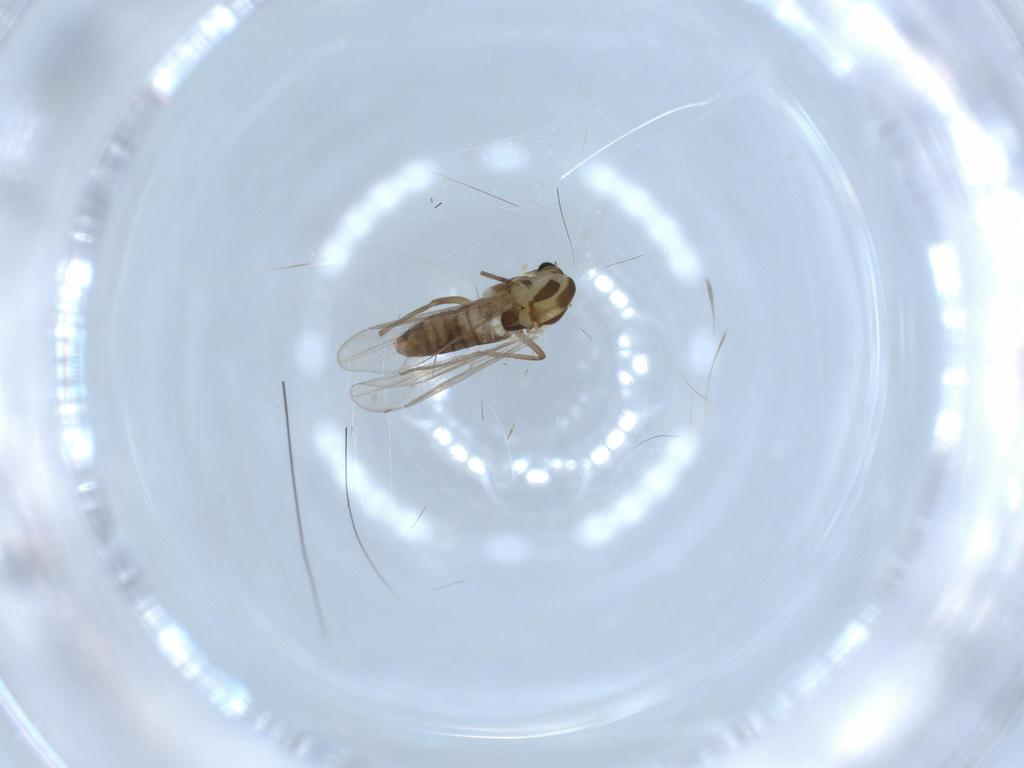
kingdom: Animalia
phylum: Arthropoda
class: Insecta
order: Diptera
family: Chironomidae
